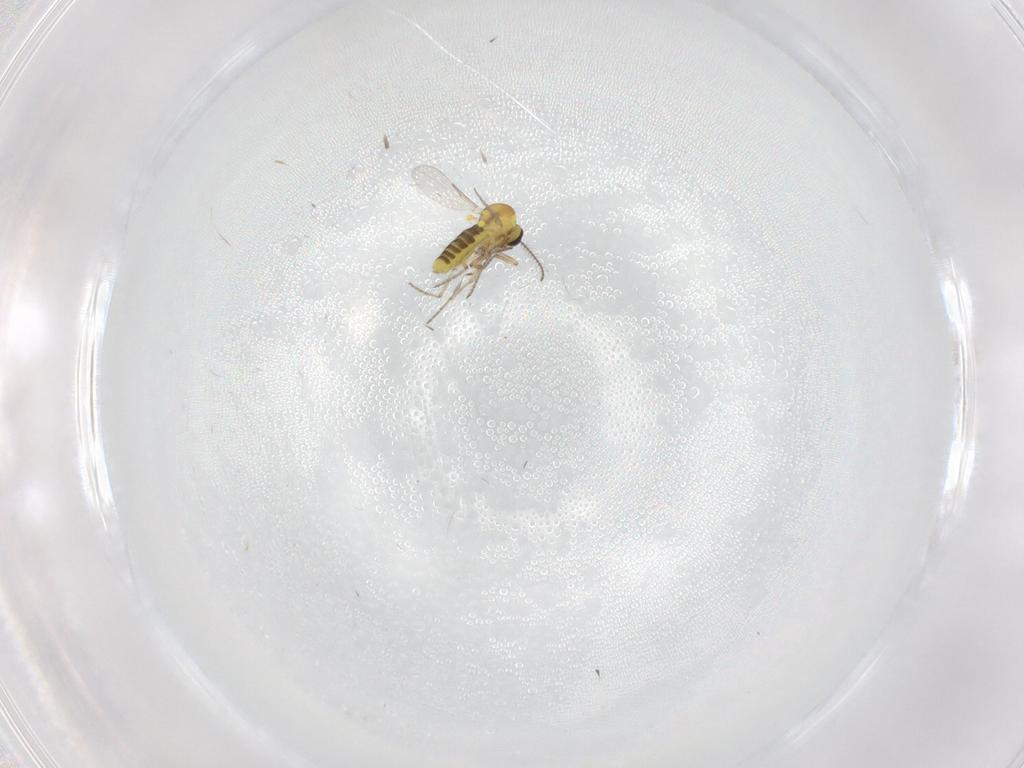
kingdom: Animalia
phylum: Arthropoda
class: Insecta
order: Diptera
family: Ceratopogonidae
